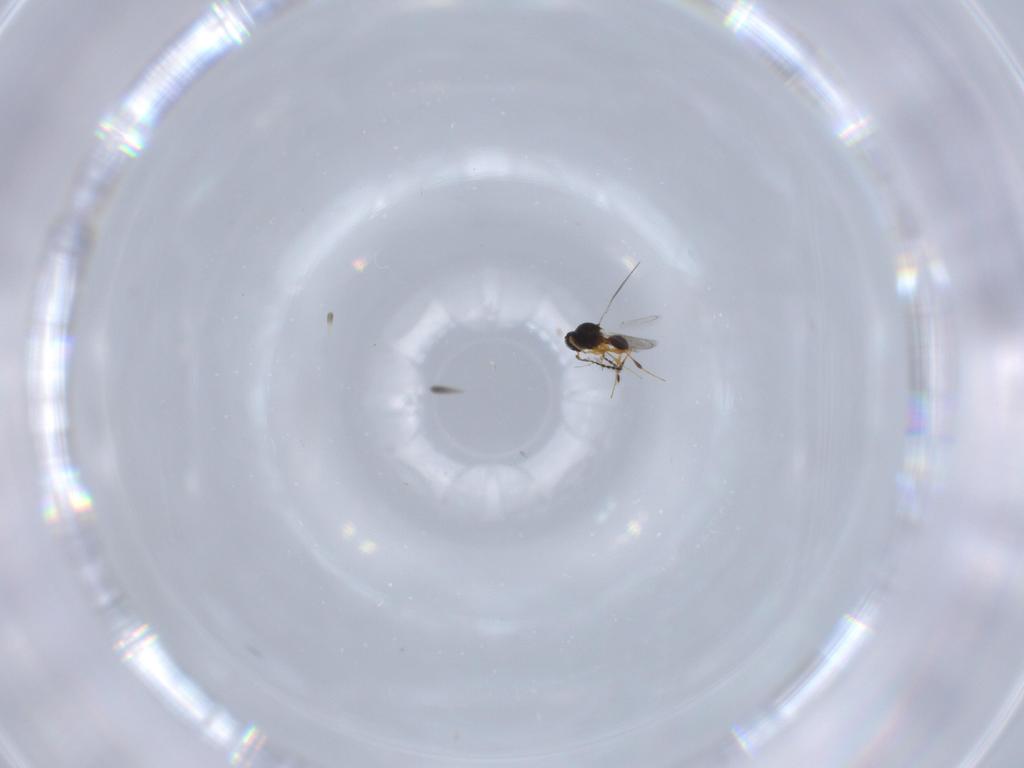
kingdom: Animalia
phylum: Arthropoda
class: Insecta
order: Hymenoptera
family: Platygastridae
